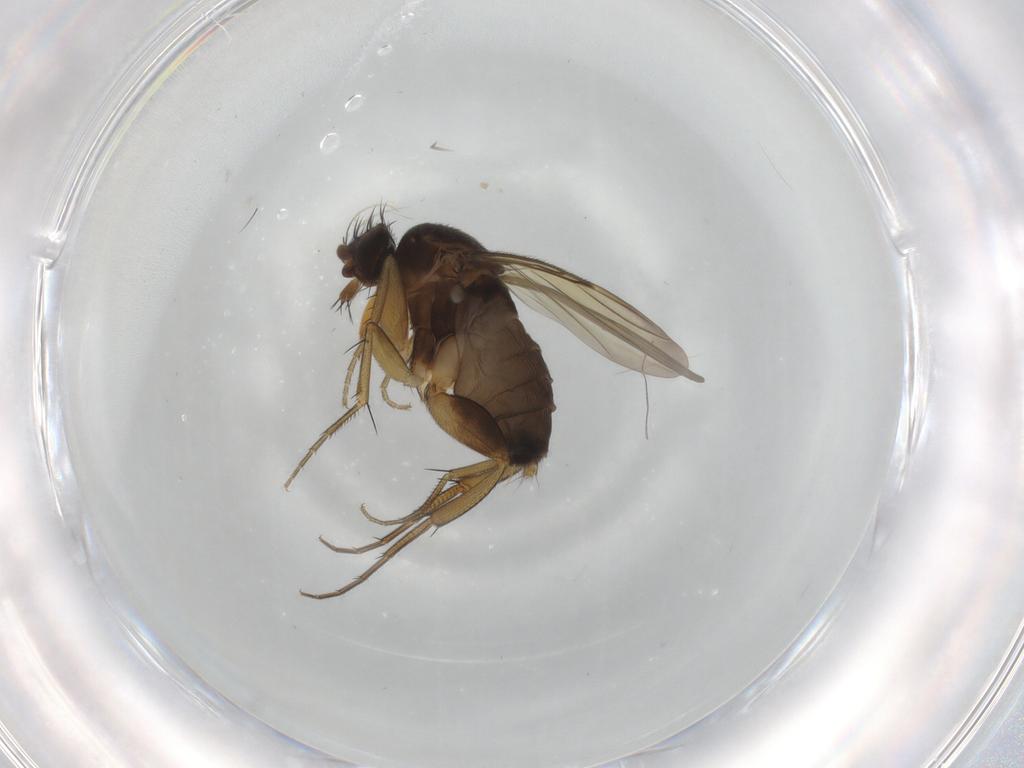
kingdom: Animalia
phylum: Arthropoda
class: Insecta
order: Diptera
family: Phoridae
